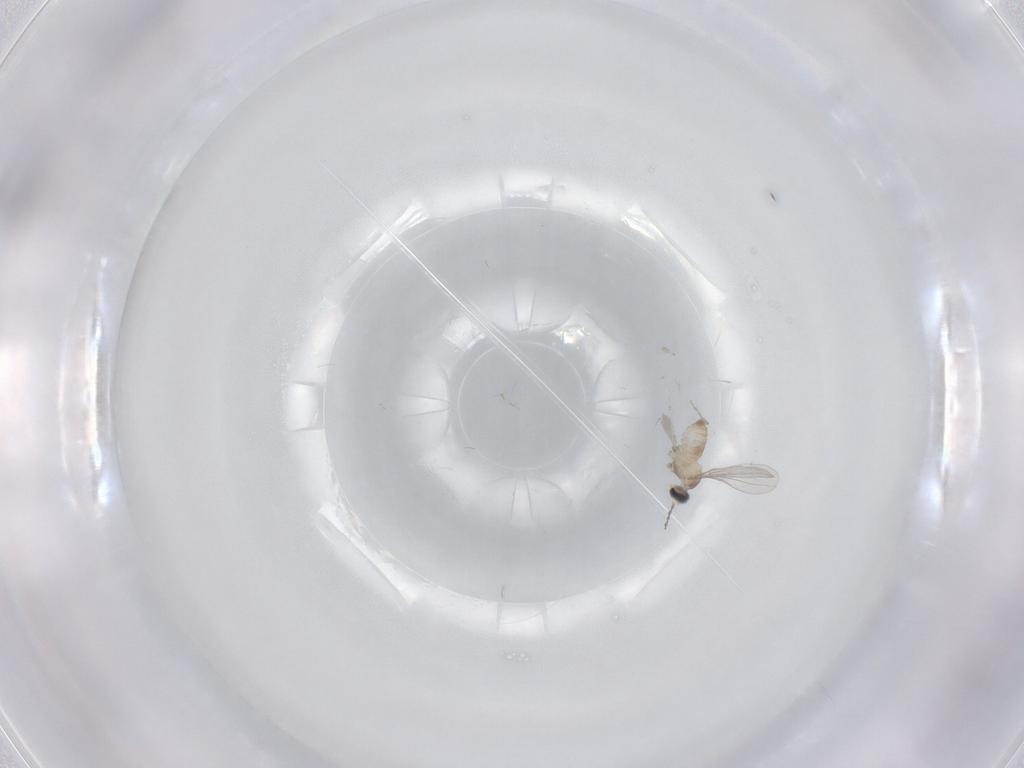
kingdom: Animalia
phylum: Arthropoda
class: Insecta
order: Diptera
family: Cecidomyiidae
